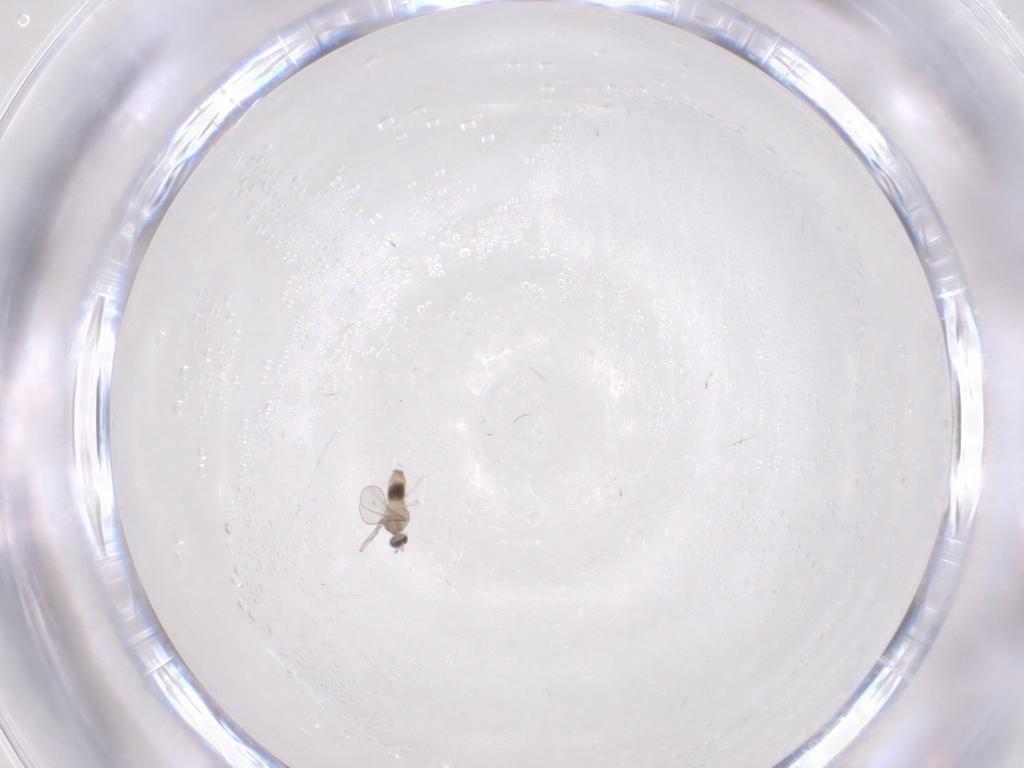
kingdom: Animalia
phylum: Arthropoda
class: Insecta
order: Diptera
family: Cecidomyiidae
